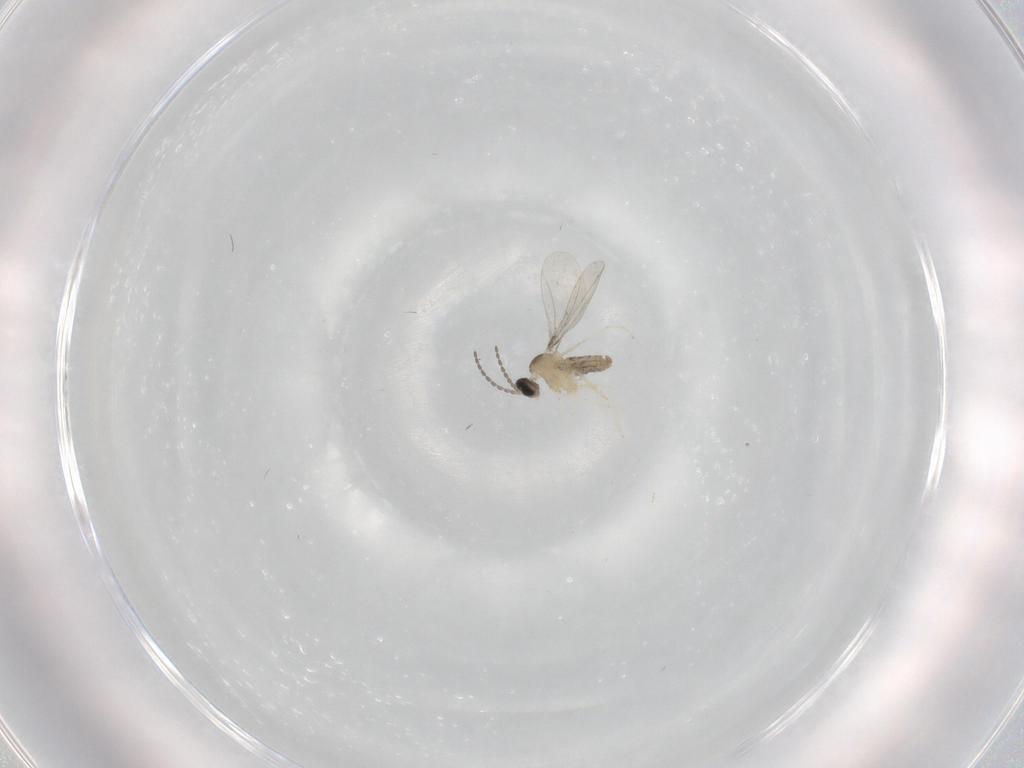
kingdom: Animalia
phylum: Arthropoda
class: Insecta
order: Diptera
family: Cecidomyiidae
